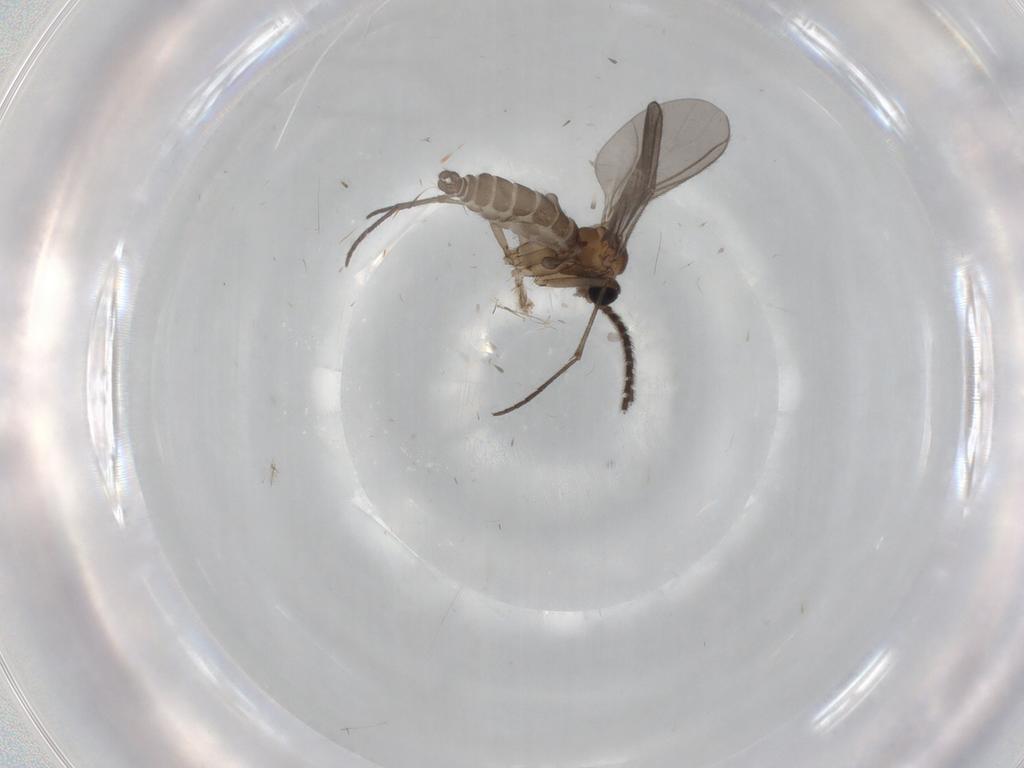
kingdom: Animalia
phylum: Arthropoda
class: Insecta
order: Diptera
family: Sciaridae
